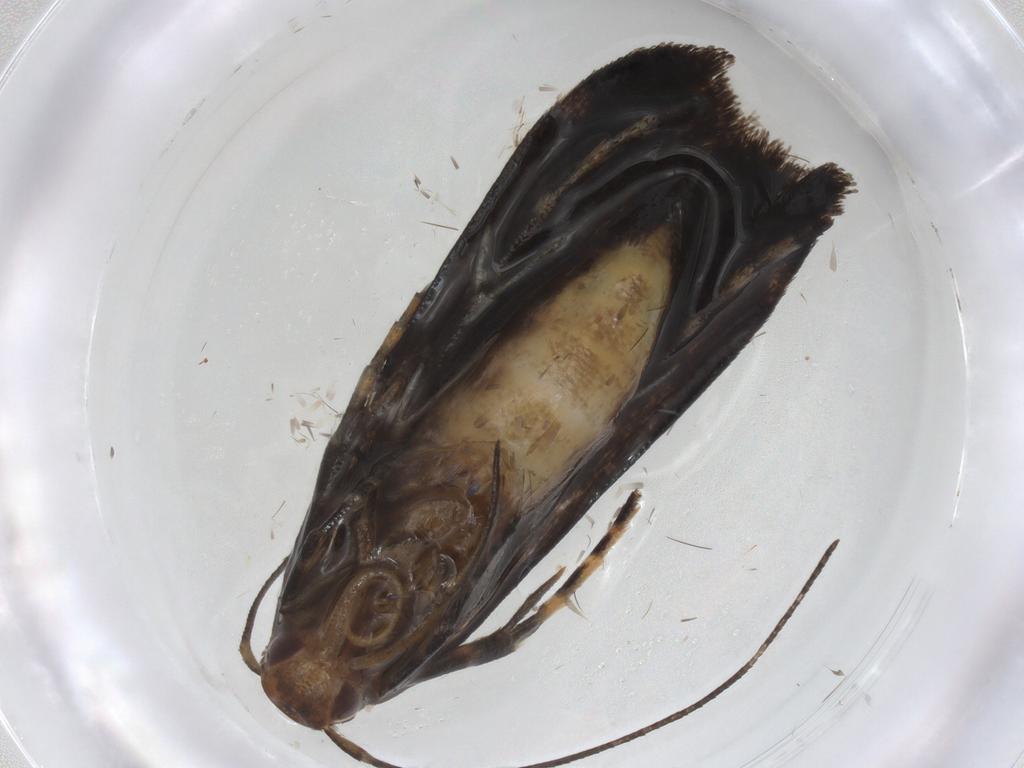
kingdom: Animalia
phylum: Arthropoda
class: Insecta
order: Lepidoptera
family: Gelechiidae
